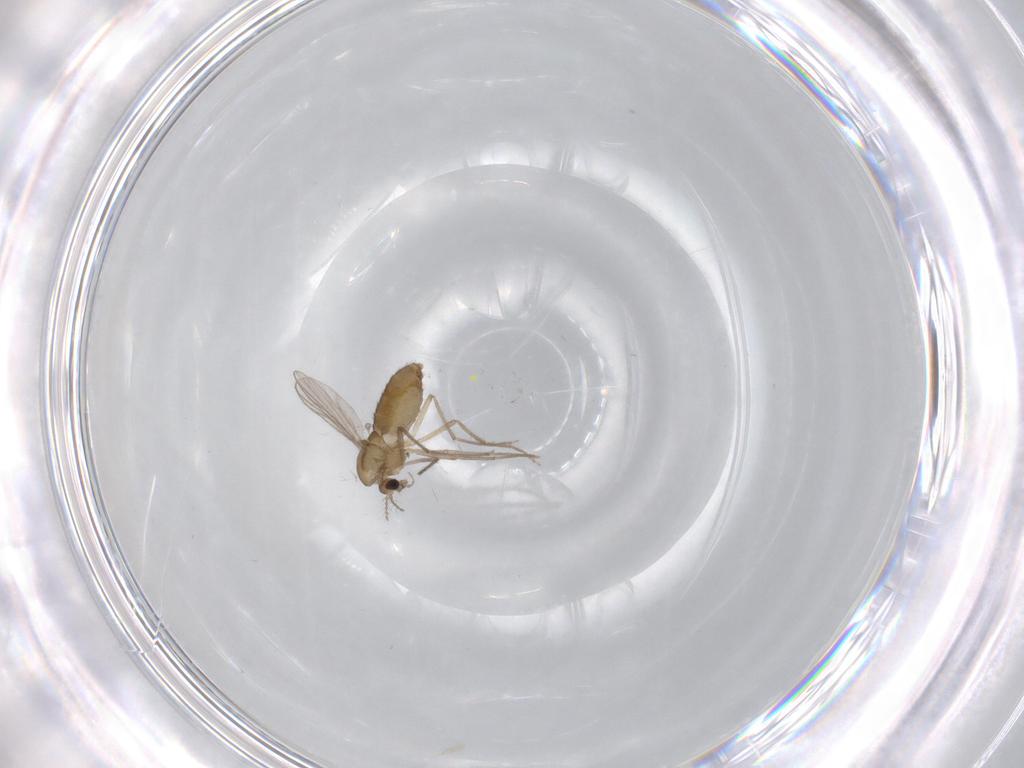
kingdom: Animalia
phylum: Arthropoda
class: Insecta
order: Diptera
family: Chironomidae
